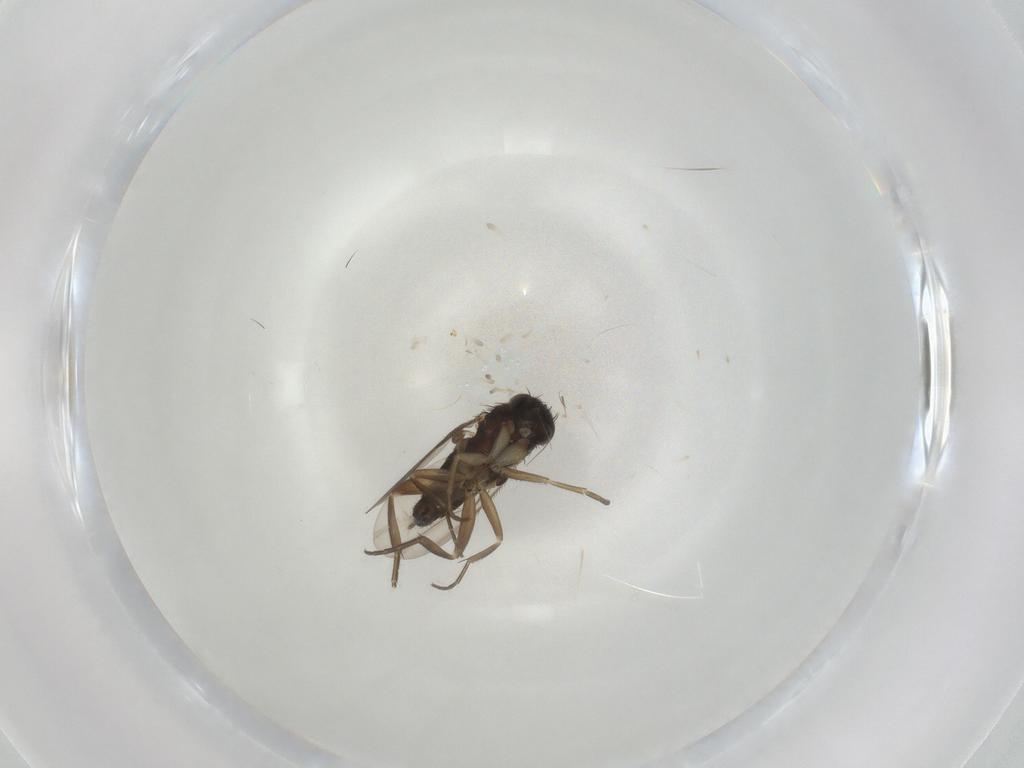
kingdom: Animalia
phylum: Arthropoda
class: Insecta
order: Diptera
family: Phoridae
